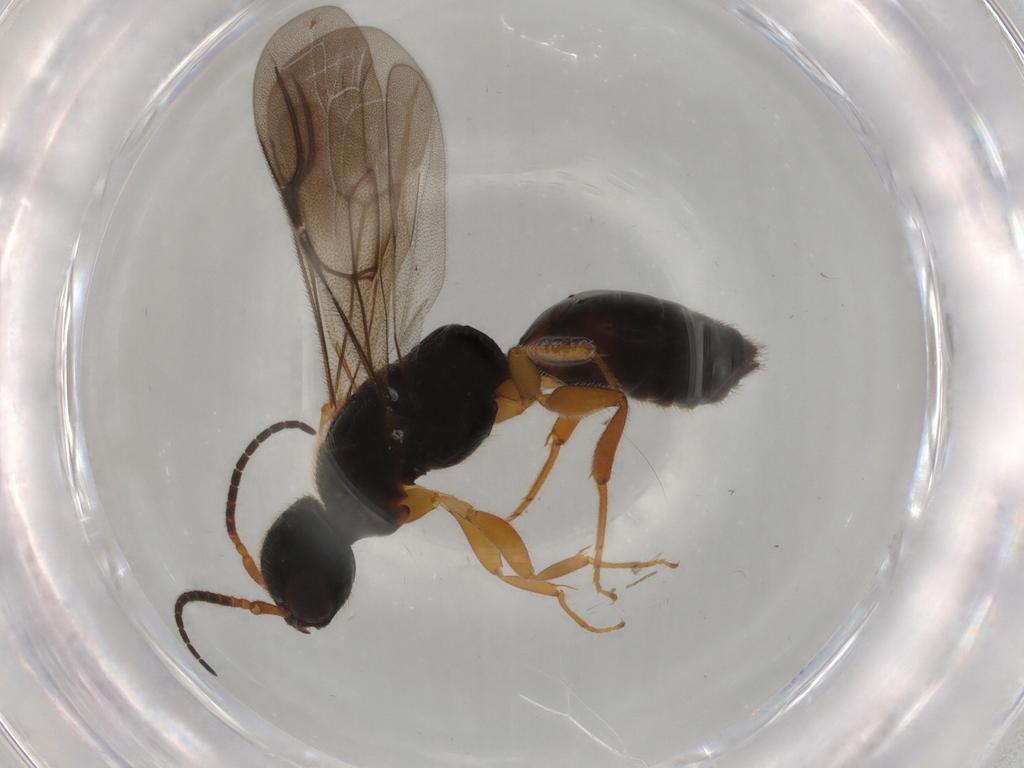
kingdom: Animalia
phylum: Arthropoda
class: Insecta
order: Hymenoptera
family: Bethylidae
